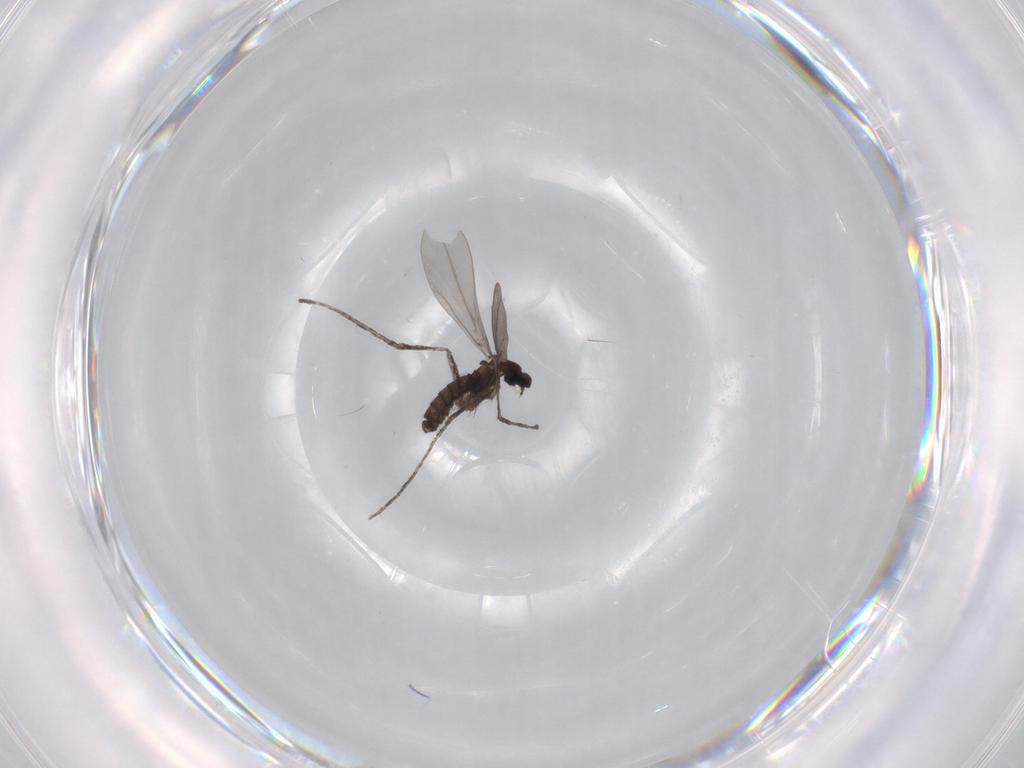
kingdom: Animalia
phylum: Arthropoda
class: Insecta
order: Diptera
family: Cecidomyiidae
